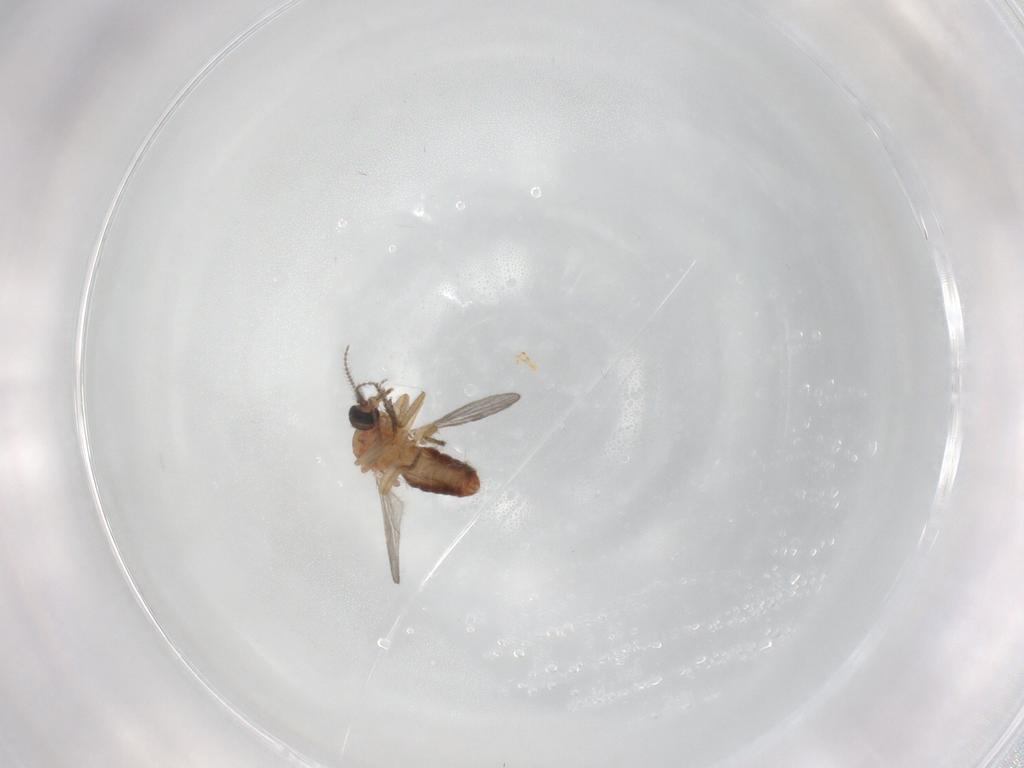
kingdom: Animalia
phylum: Arthropoda
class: Insecta
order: Diptera
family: Ceratopogonidae
